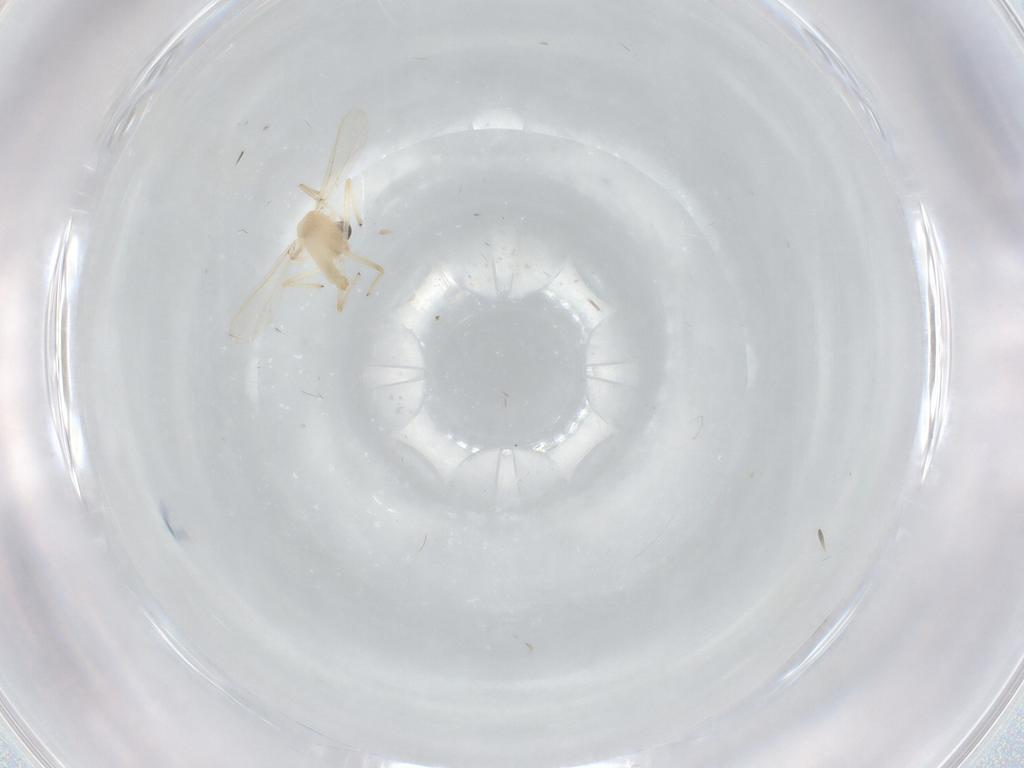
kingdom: Animalia
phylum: Arthropoda
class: Insecta
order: Diptera
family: Chironomidae
